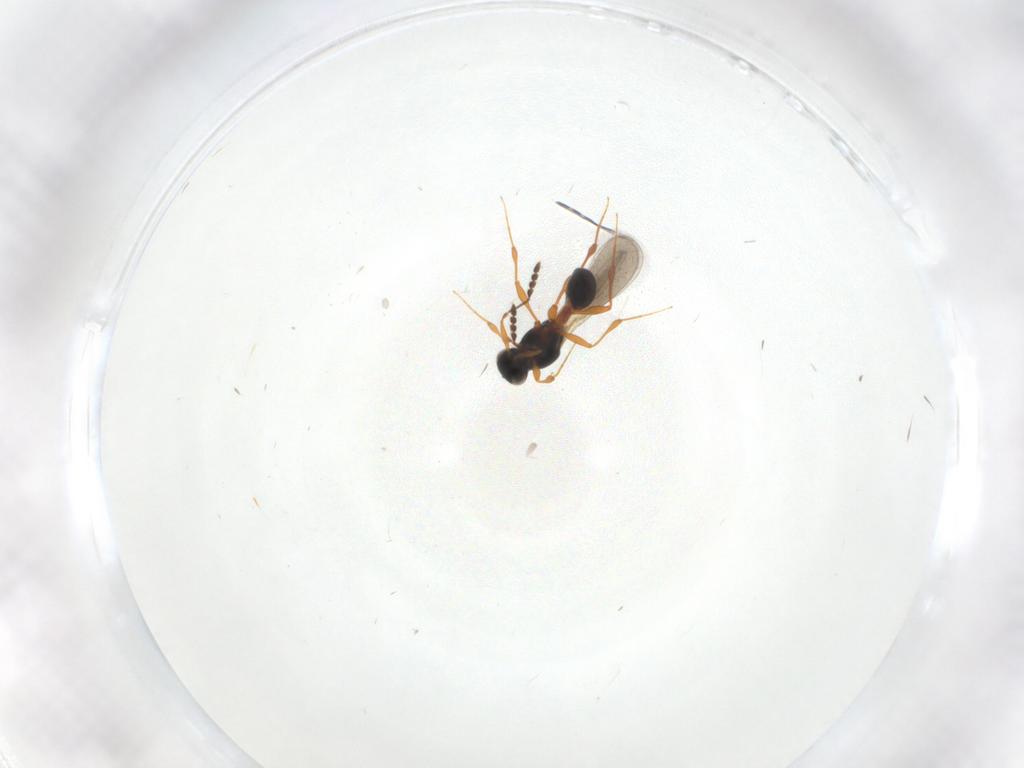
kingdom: Animalia
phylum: Arthropoda
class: Insecta
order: Hymenoptera
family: Platygastridae
